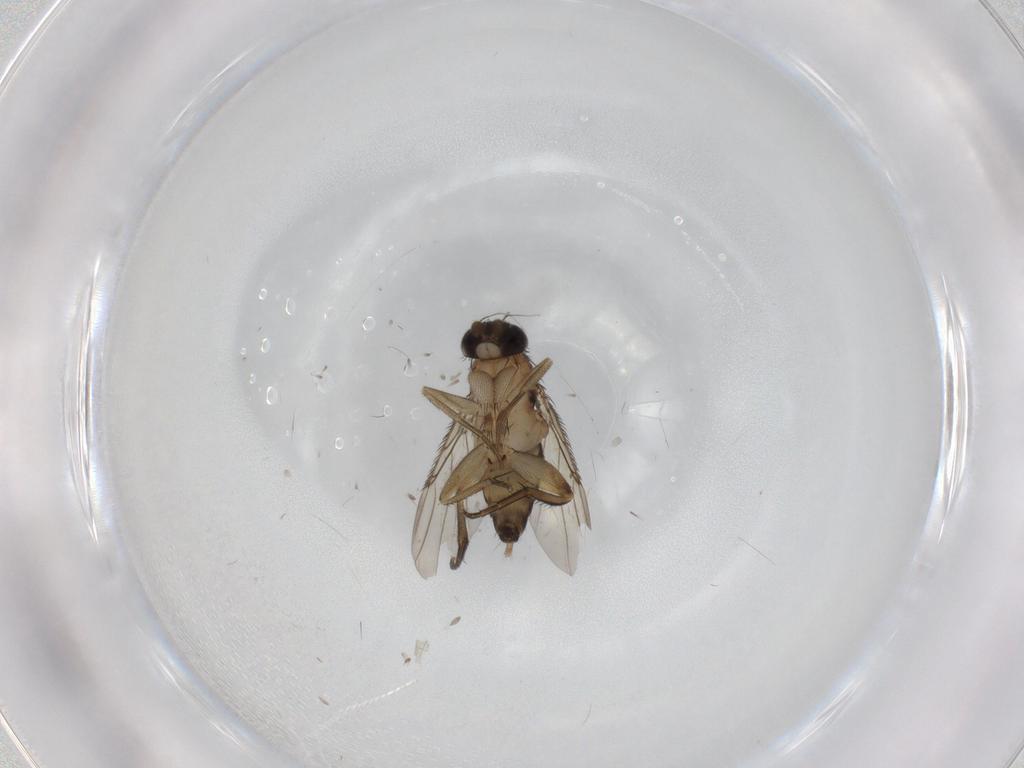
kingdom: Animalia
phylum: Arthropoda
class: Insecta
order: Diptera
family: Phoridae
